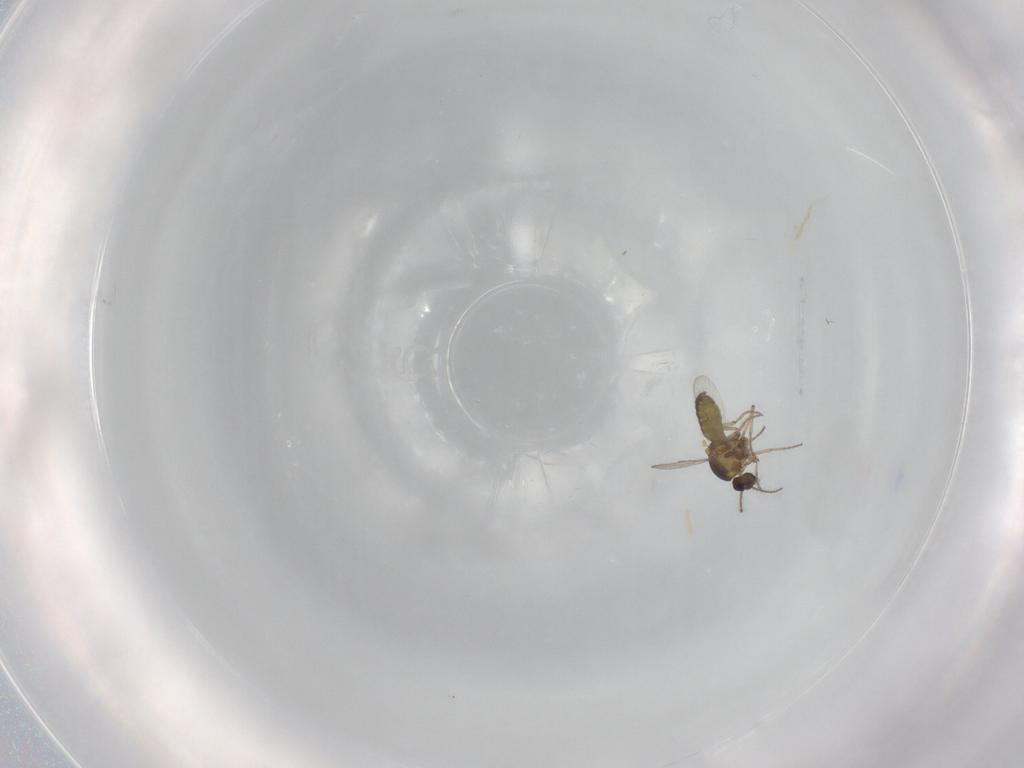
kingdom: Animalia
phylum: Arthropoda
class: Insecta
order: Diptera
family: Ceratopogonidae
